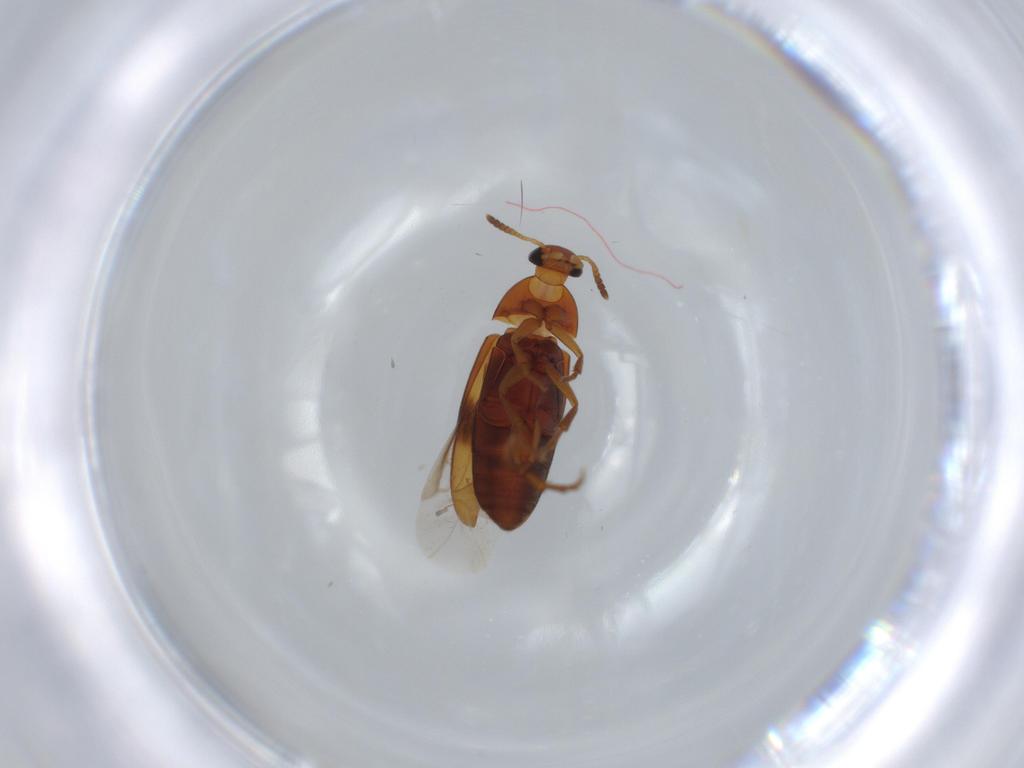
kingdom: Animalia
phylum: Arthropoda
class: Insecta
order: Coleoptera
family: Scraptiidae
